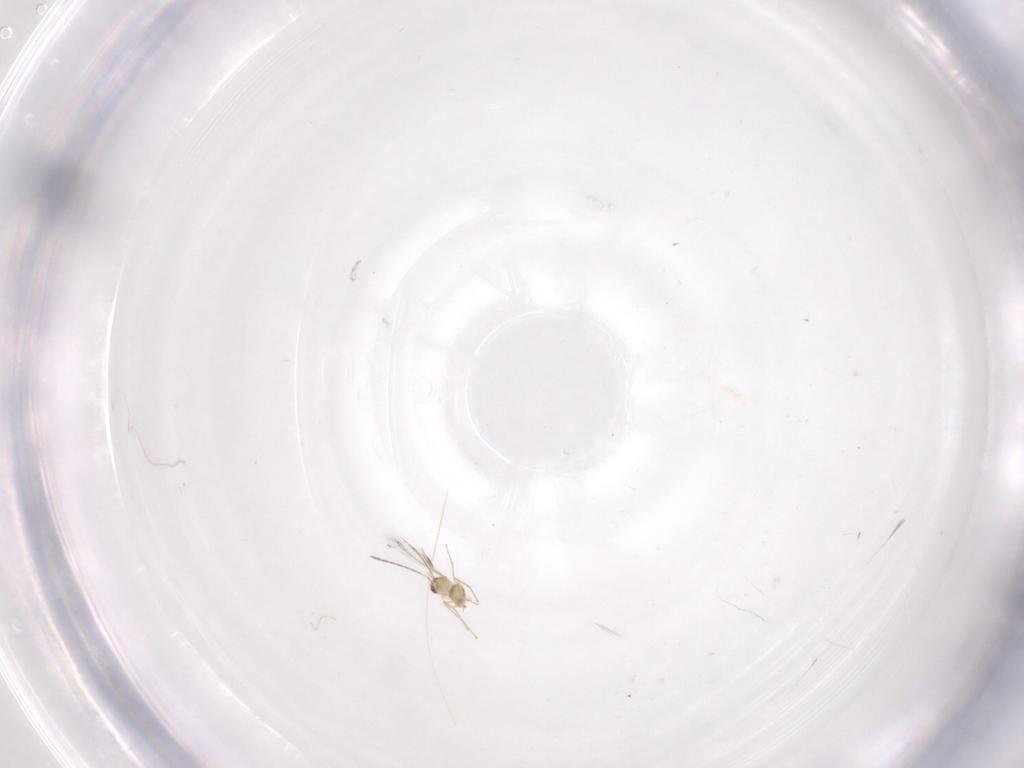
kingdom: Animalia
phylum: Arthropoda
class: Insecta
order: Hymenoptera
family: Mymaridae
